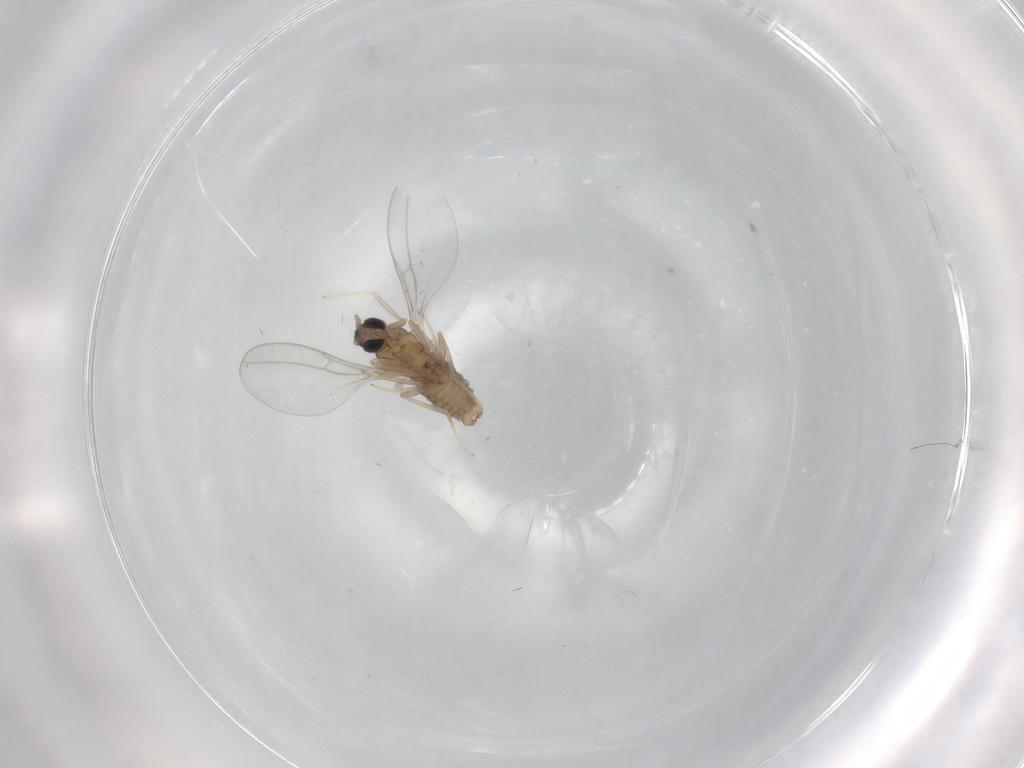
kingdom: Animalia
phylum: Arthropoda
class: Insecta
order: Diptera
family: Cecidomyiidae
